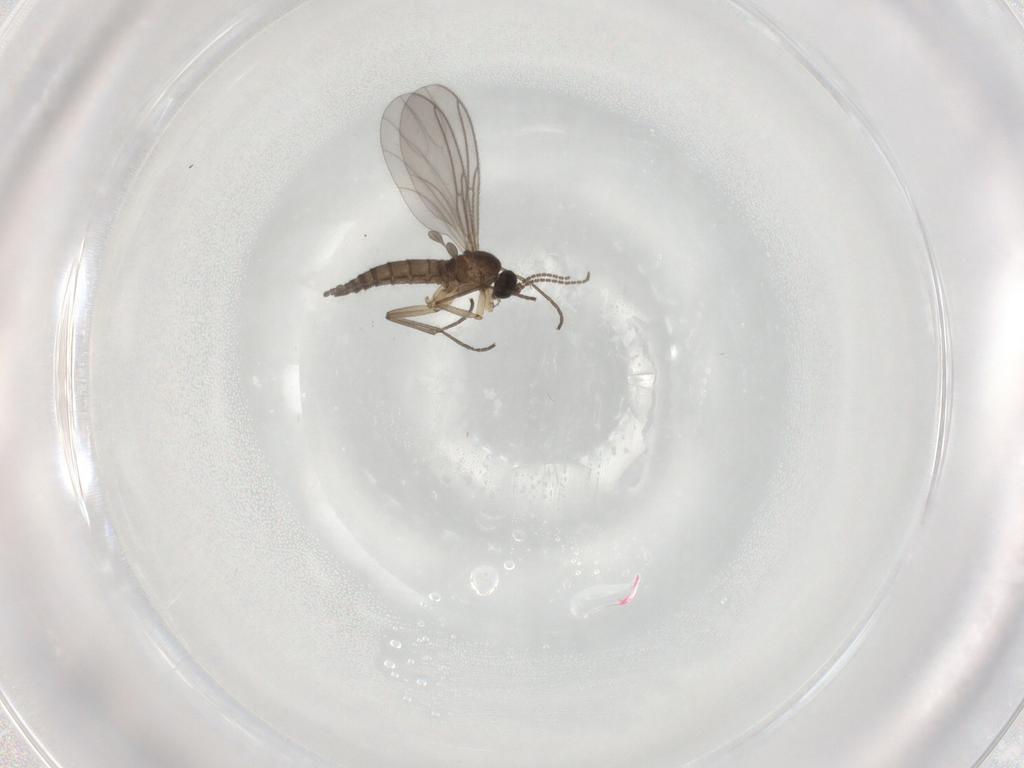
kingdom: Animalia
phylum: Arthropoda
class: Insecta
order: Diptera
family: Sciaridae
